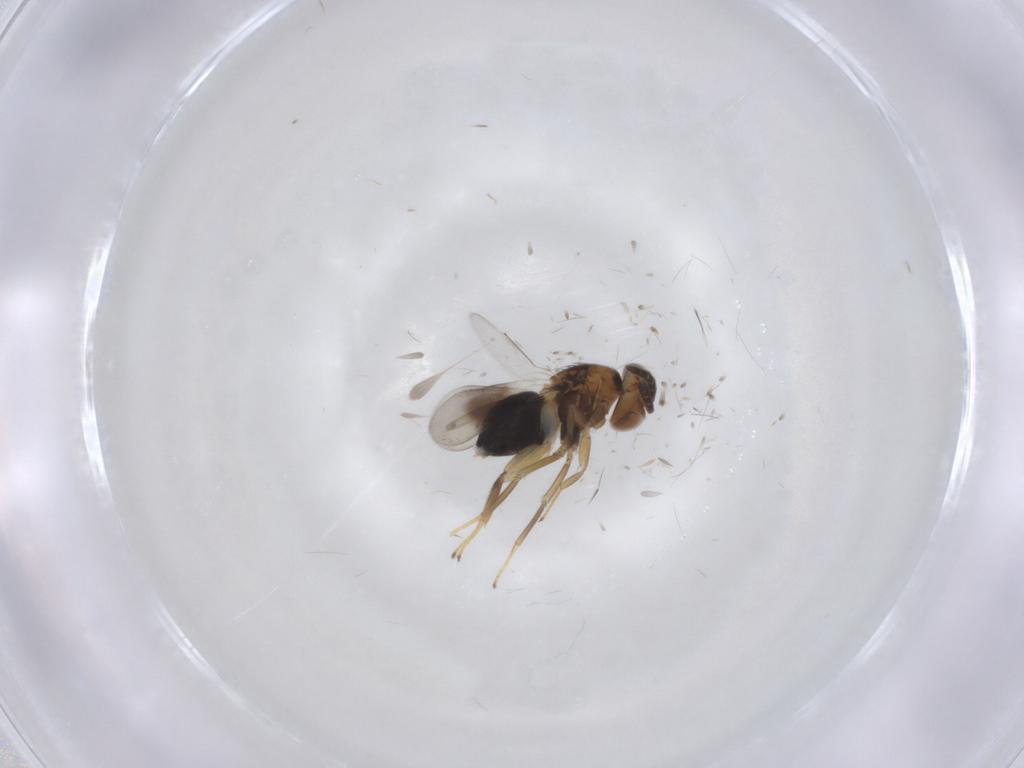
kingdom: Animalia
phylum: Arthropoda
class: Insecta
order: Hymenoptera
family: Aphelinidae
